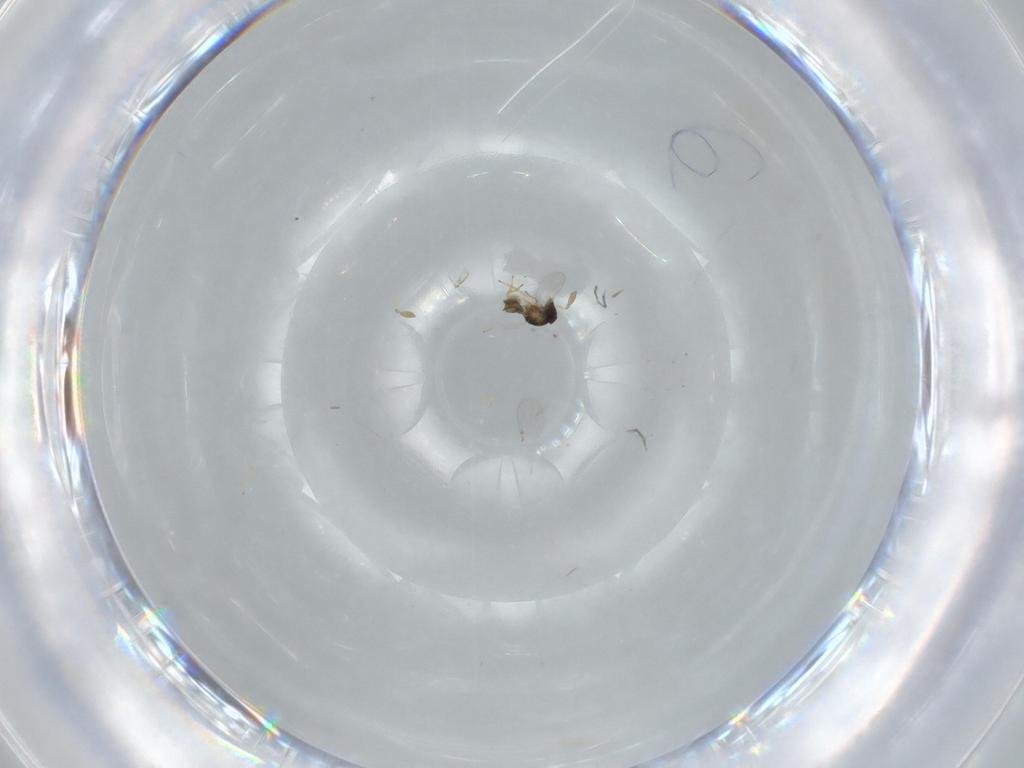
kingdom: Animalia
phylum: Arthropoda
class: Insecta
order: Hymenoptera
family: Encyrtidae
